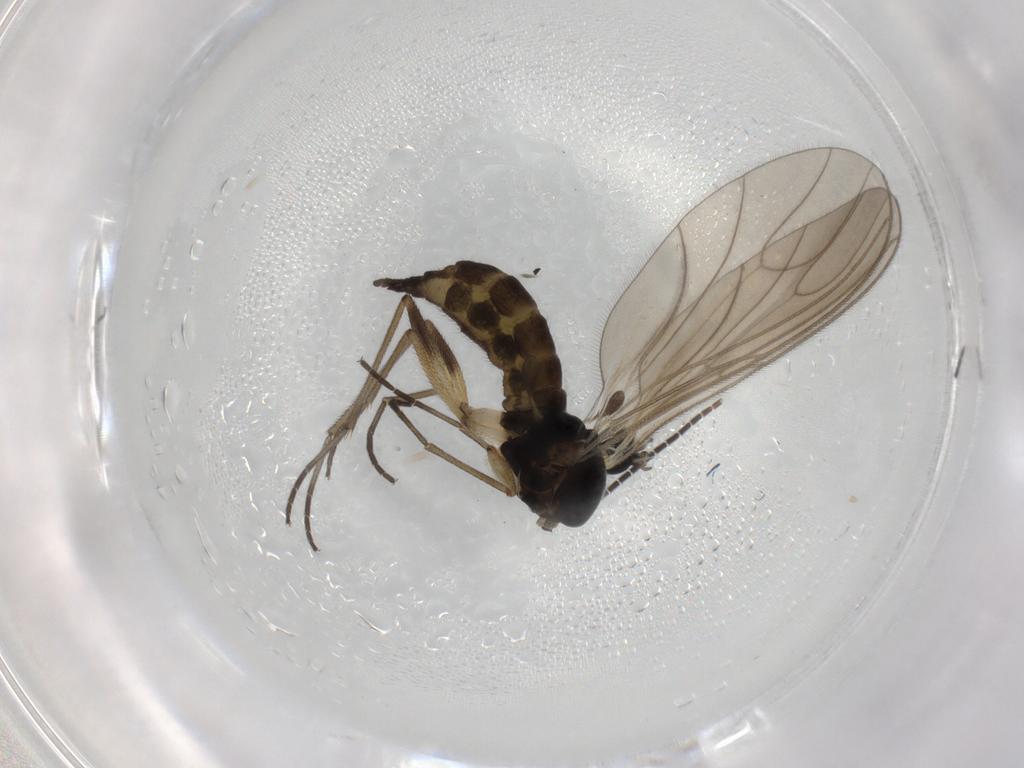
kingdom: Animalia
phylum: Arthropoda
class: Insecta
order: Diptera
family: Sciaridae
